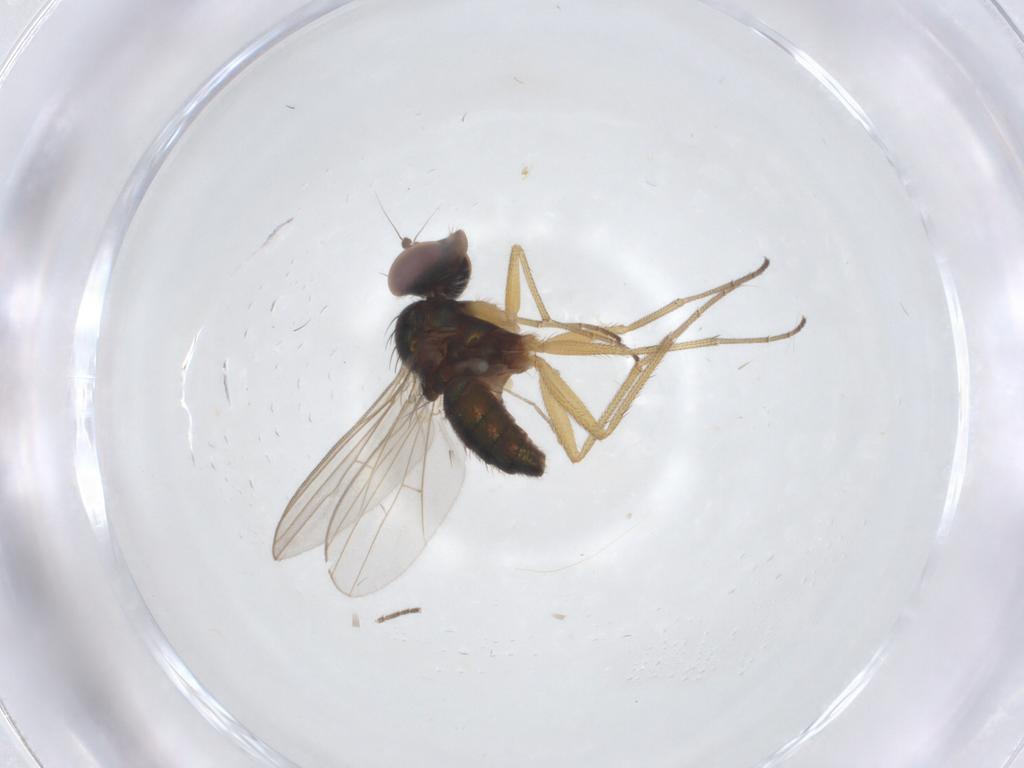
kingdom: Animalia
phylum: Arthropoda
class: Insecta
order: Diptera
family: Dolichopodidae
